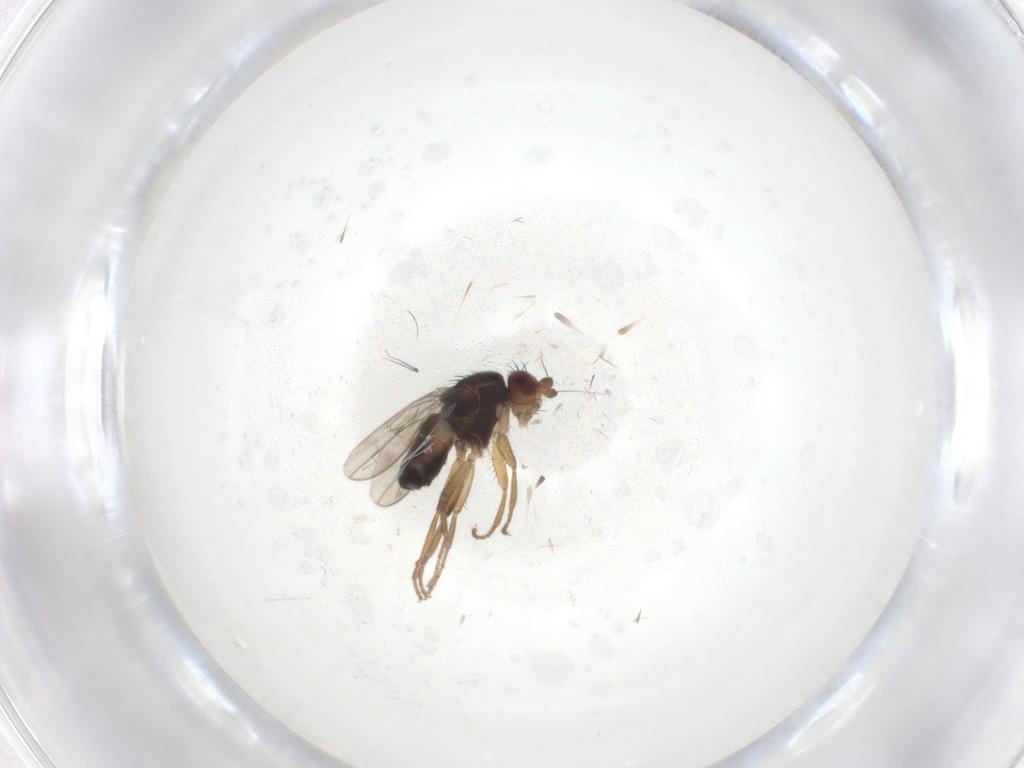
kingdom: Animalia
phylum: Arthropoda
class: Insecta
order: Diptera
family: Sphaeroceridae
